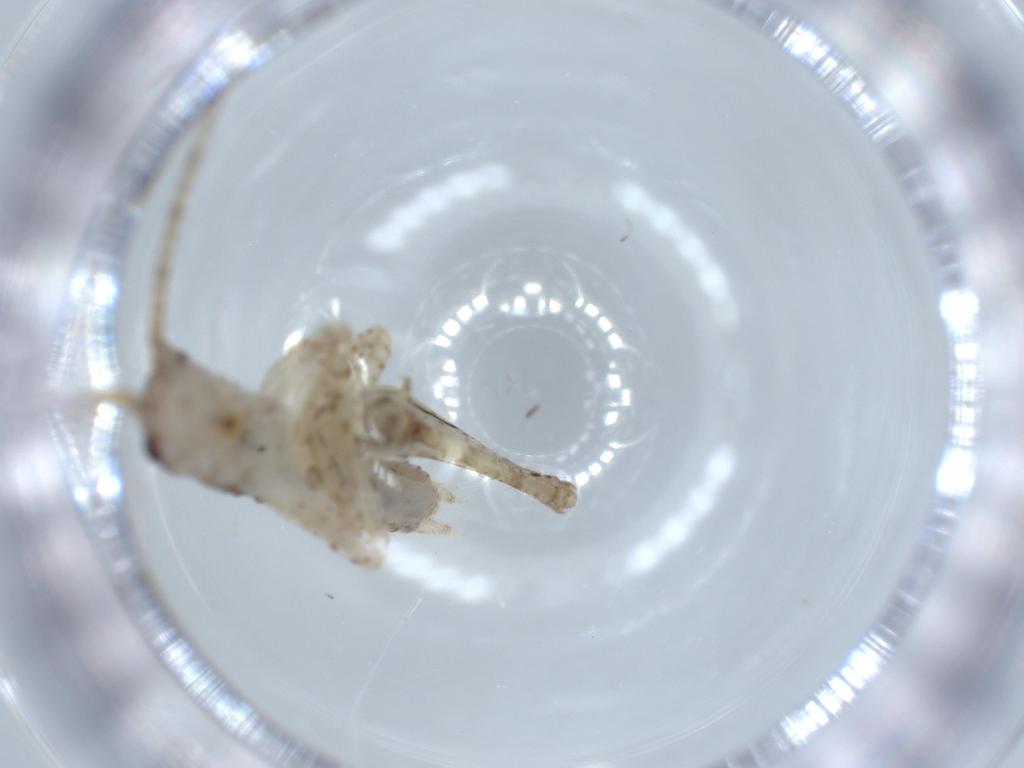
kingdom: Animalia
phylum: Arthropoda
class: Insecta
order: Orthoptera
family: Gryllidae
